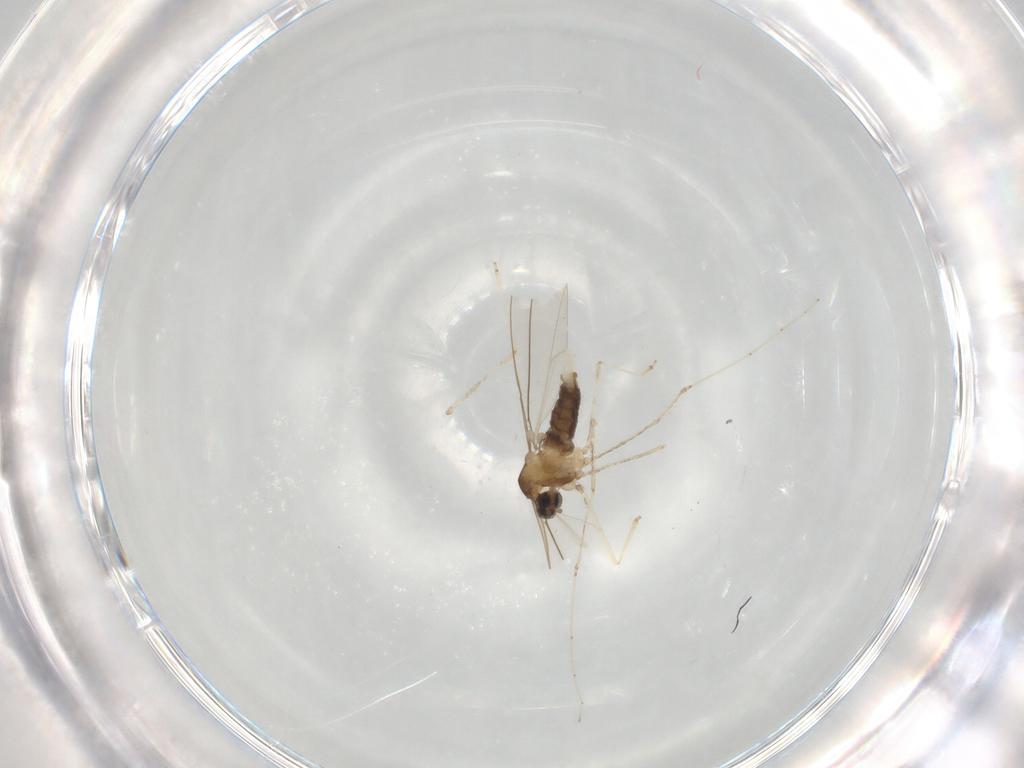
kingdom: Animalia
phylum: Arthropoda
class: Insecta
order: Diptera
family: Cecidomyiidae
